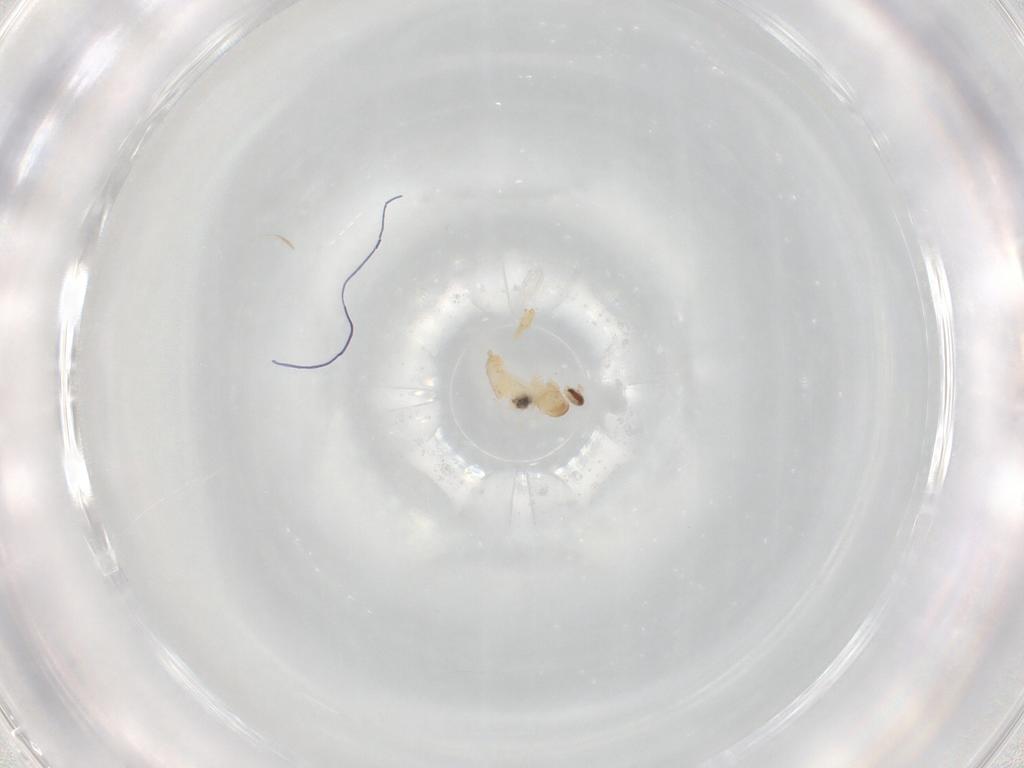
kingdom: Animalia
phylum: Arthropoda
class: Insecta
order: Diptera
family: Cecidomyiidae
